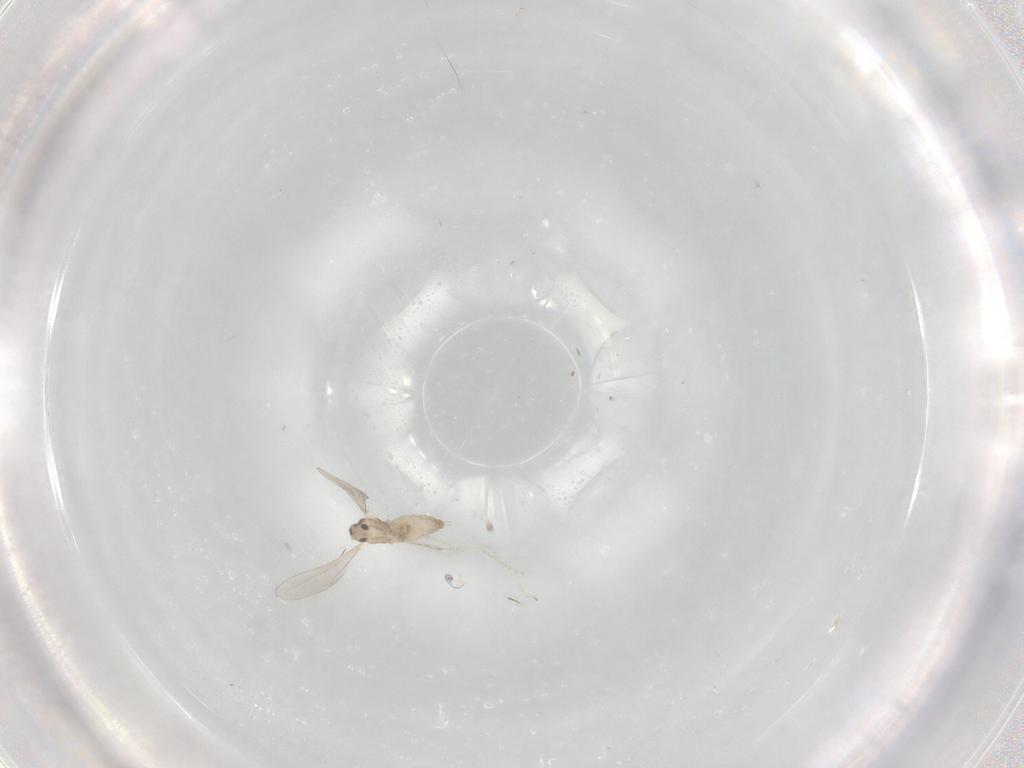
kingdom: Animalia
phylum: Arthropoda
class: Insecta
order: Diptera
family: Cecidomyiidae
